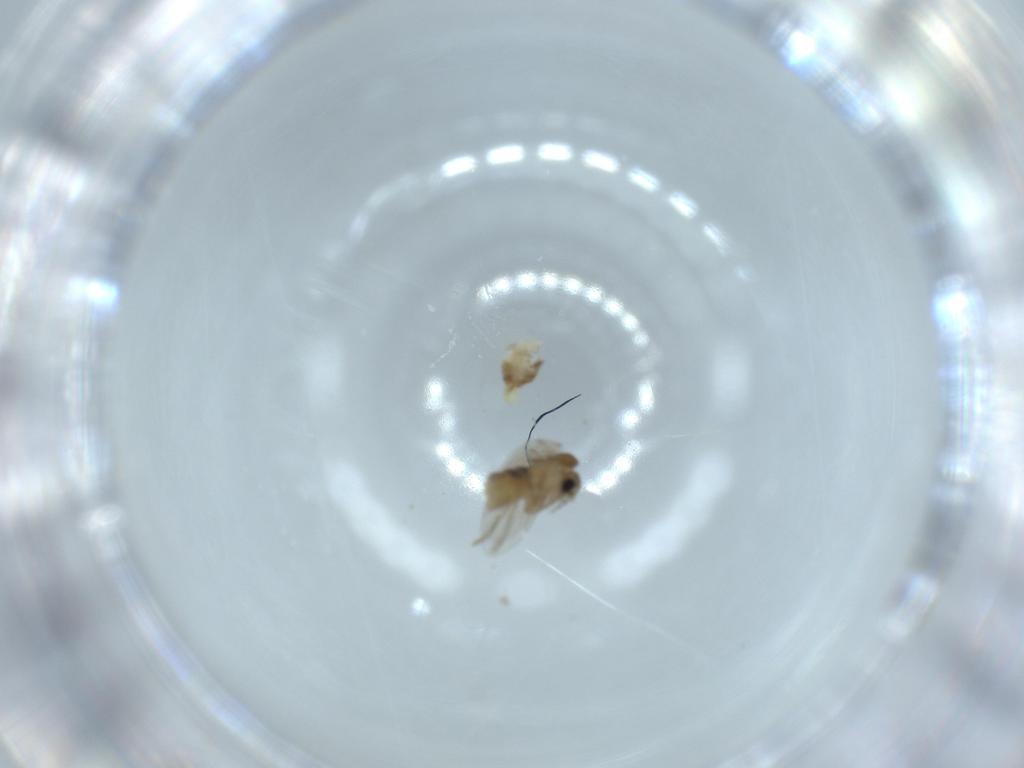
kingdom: Animalia
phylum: Arthropoda
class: Insecta
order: Diptera
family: Psychodidae
